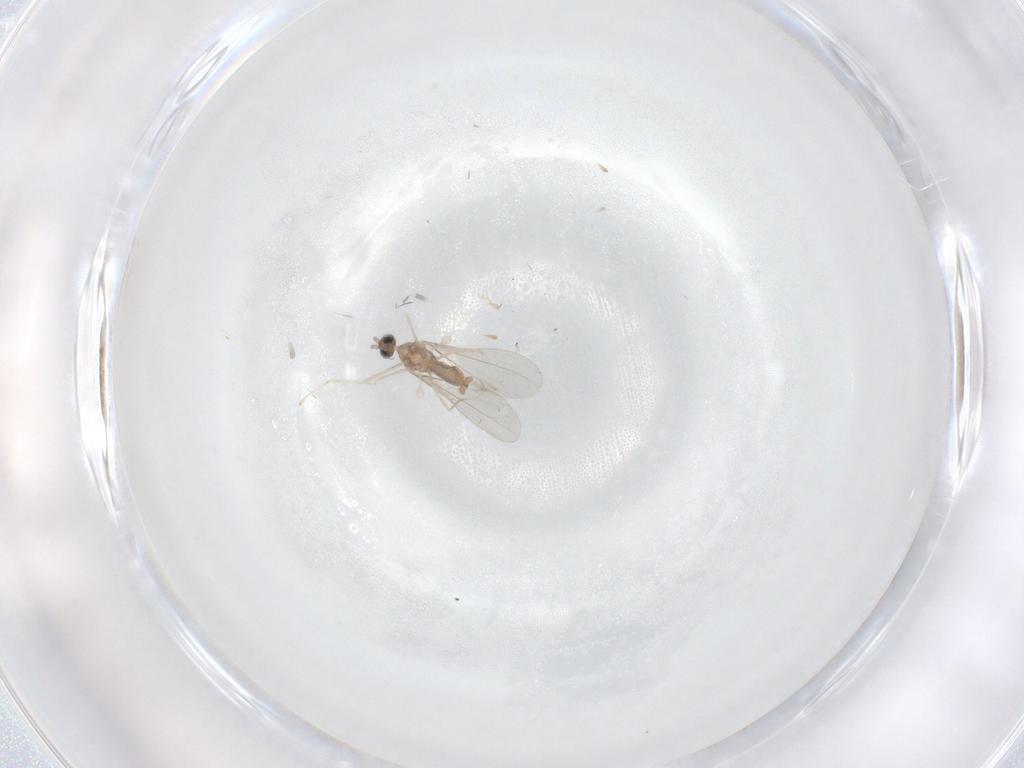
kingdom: Animalia
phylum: Arthropoda
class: Insecta
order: Diptera
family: Cecidomyiidae
